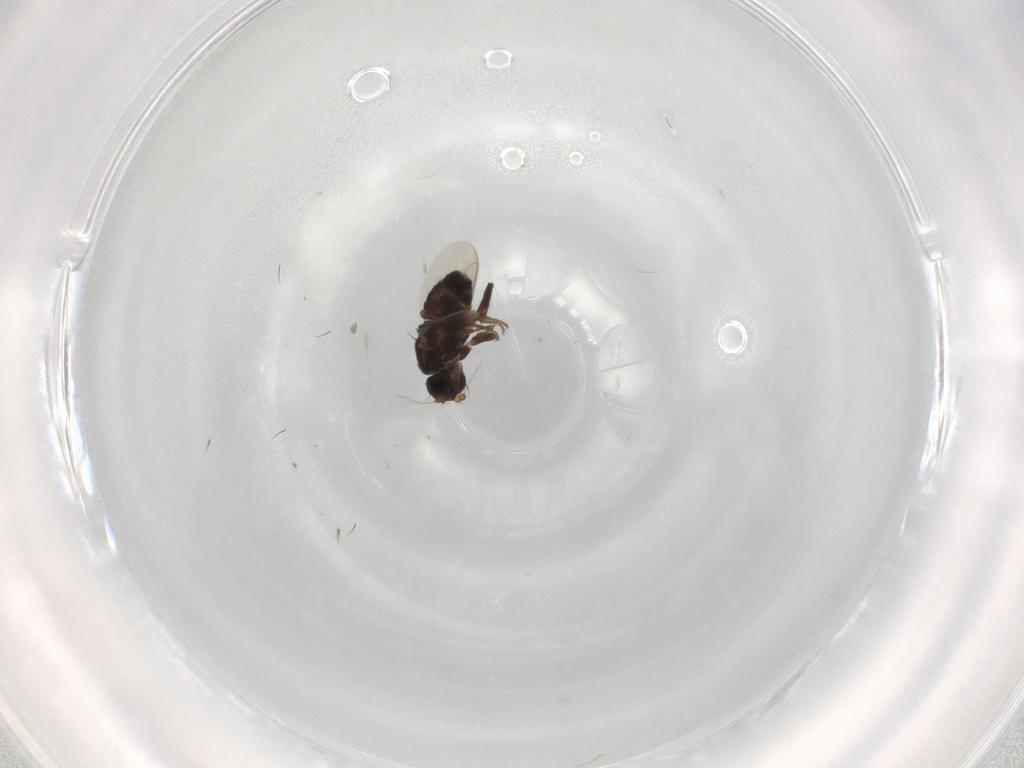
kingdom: Animalia
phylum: Arthropoda
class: Insecta
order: Diptera
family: Sphaeroceridae
